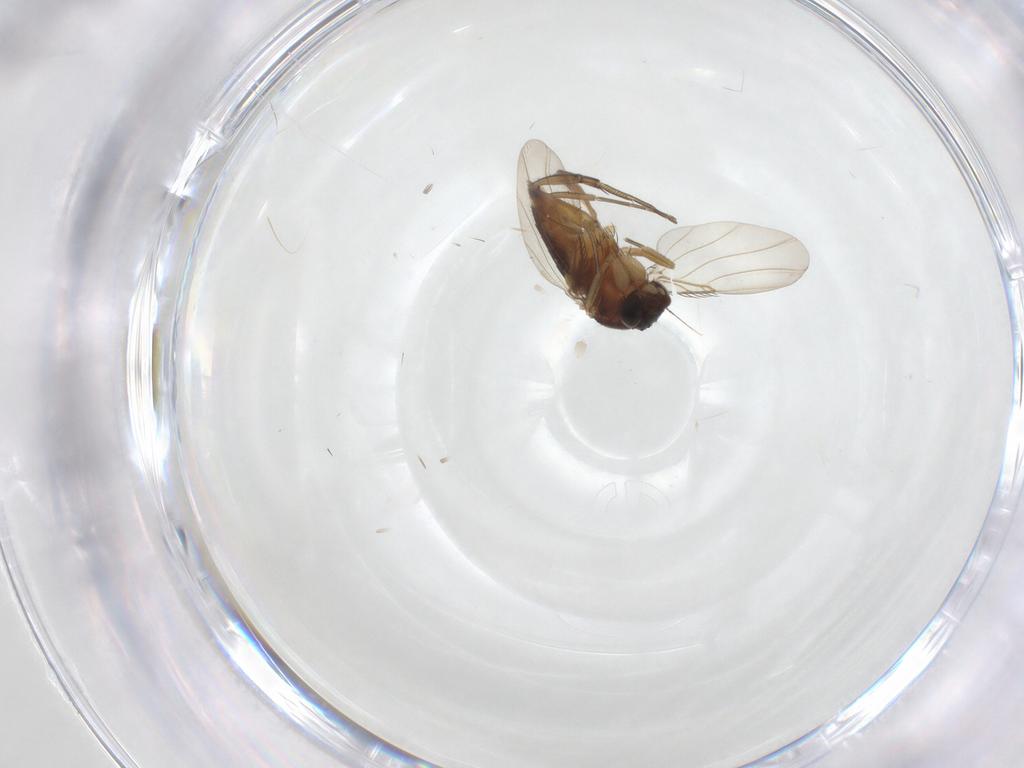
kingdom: Animalia
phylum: Arthropoda
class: Insecta
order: Diptera
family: Phoridae
